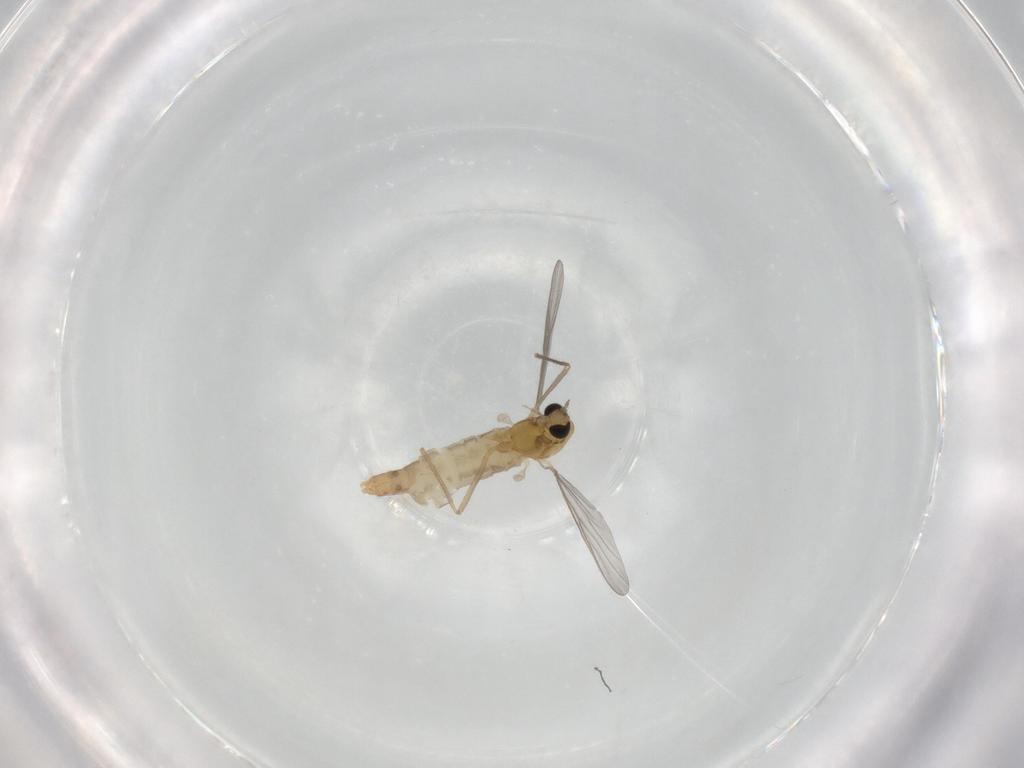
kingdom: Animalia
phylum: Arthropoda
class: Insecta
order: Diptera
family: Chironomidae
